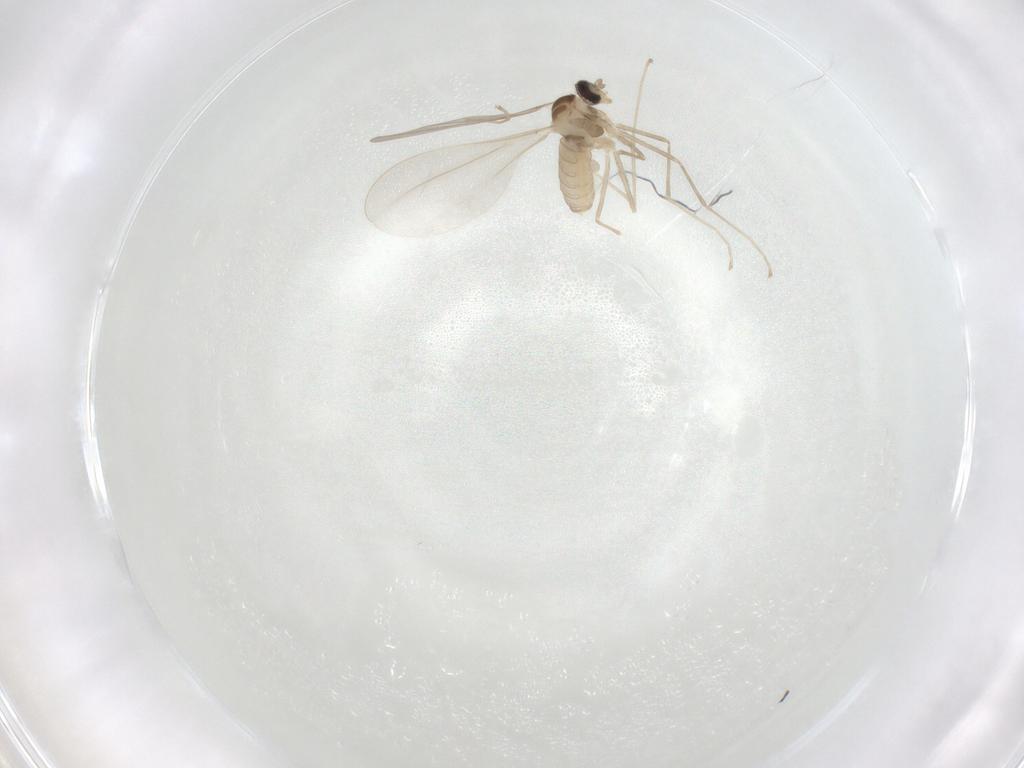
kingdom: Animalia
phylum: Arthropoda
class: Insecta
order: Diptera
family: Cecidomyiidae
